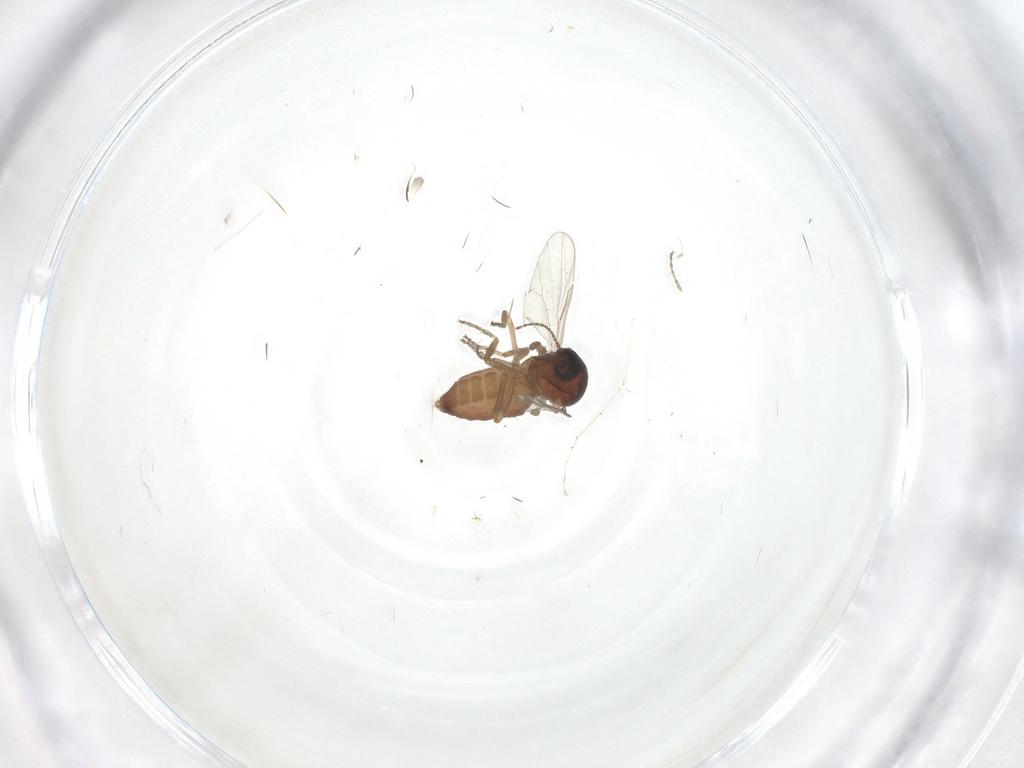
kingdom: Animalia
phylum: Arthropoda
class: Insecta
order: Diptera
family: Ceratopogonidae
